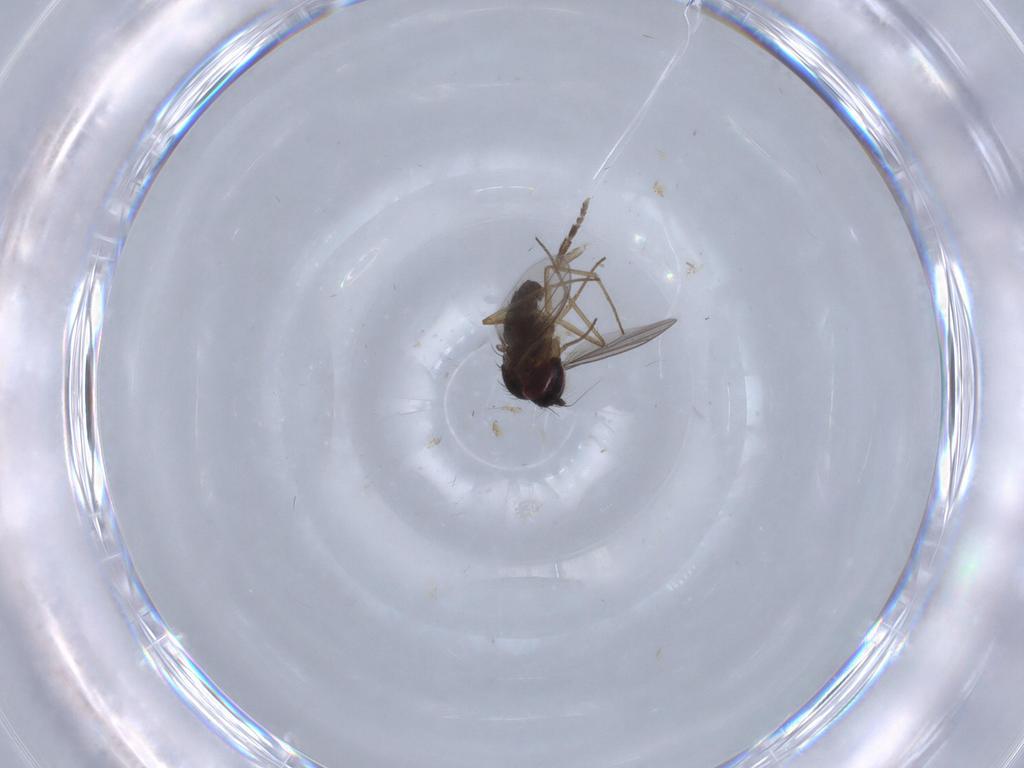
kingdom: Animalia
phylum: Arthropoda
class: Insecta
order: Diptera
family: Dolichopodidae
